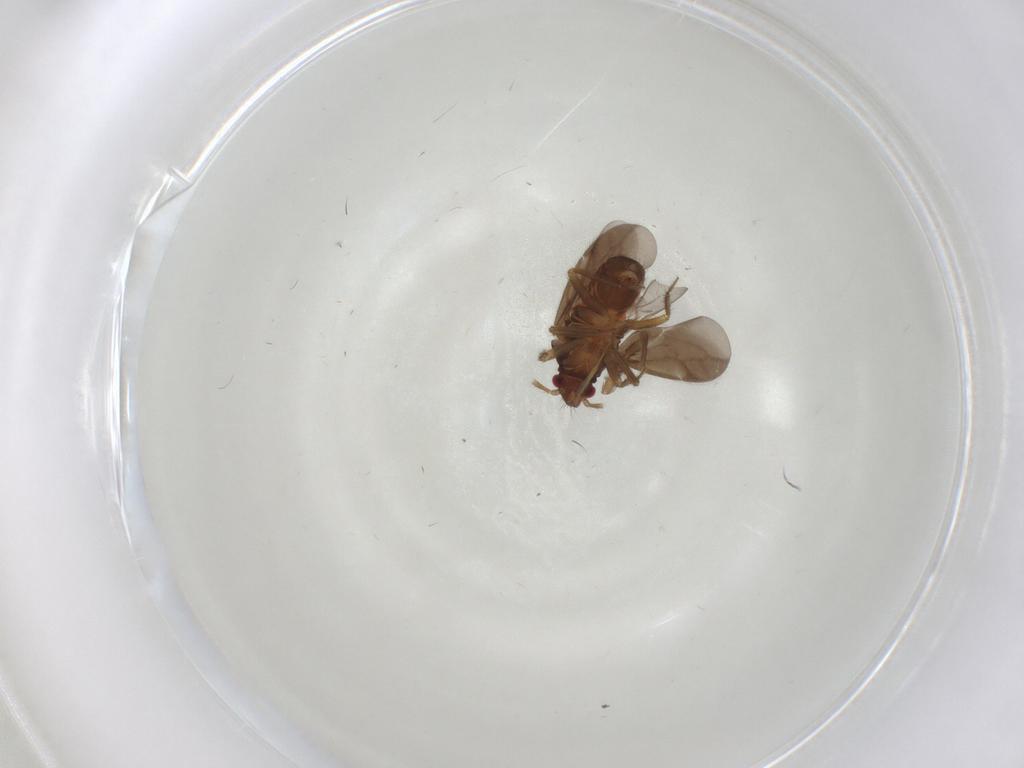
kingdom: Animalia
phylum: Arthropoda
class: Insecta
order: Hemiptera
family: Ceratocombidae
